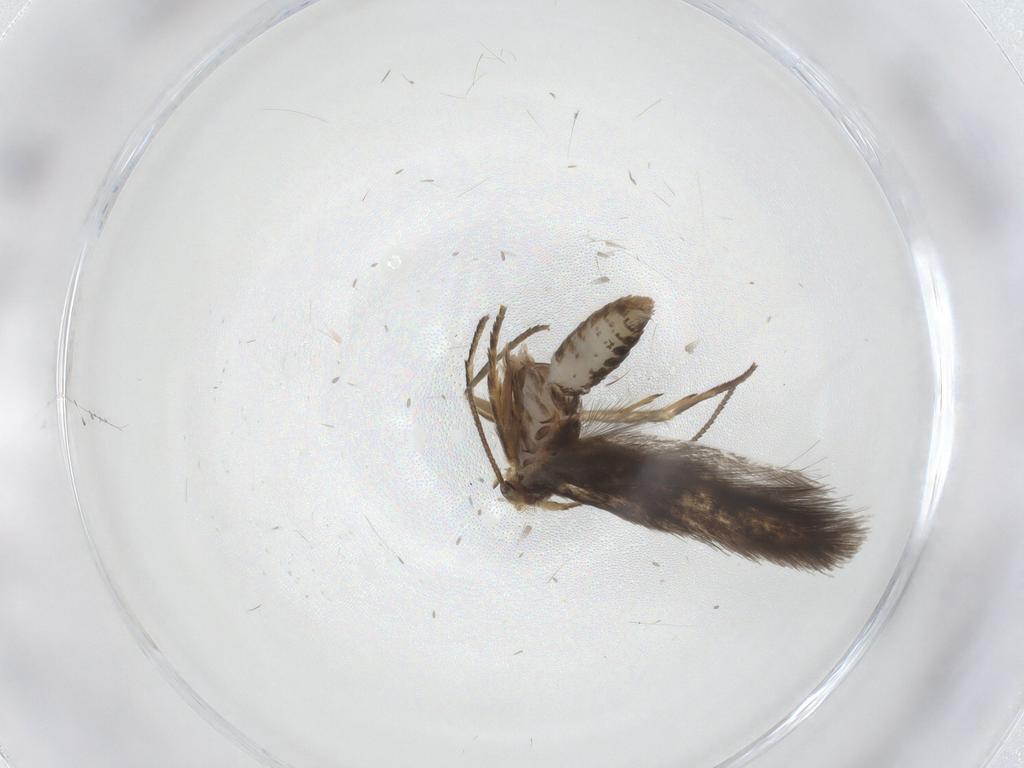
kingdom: Animalia
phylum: Arthropoda
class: Insecta
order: Lepidoptera
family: Nepticulidae
